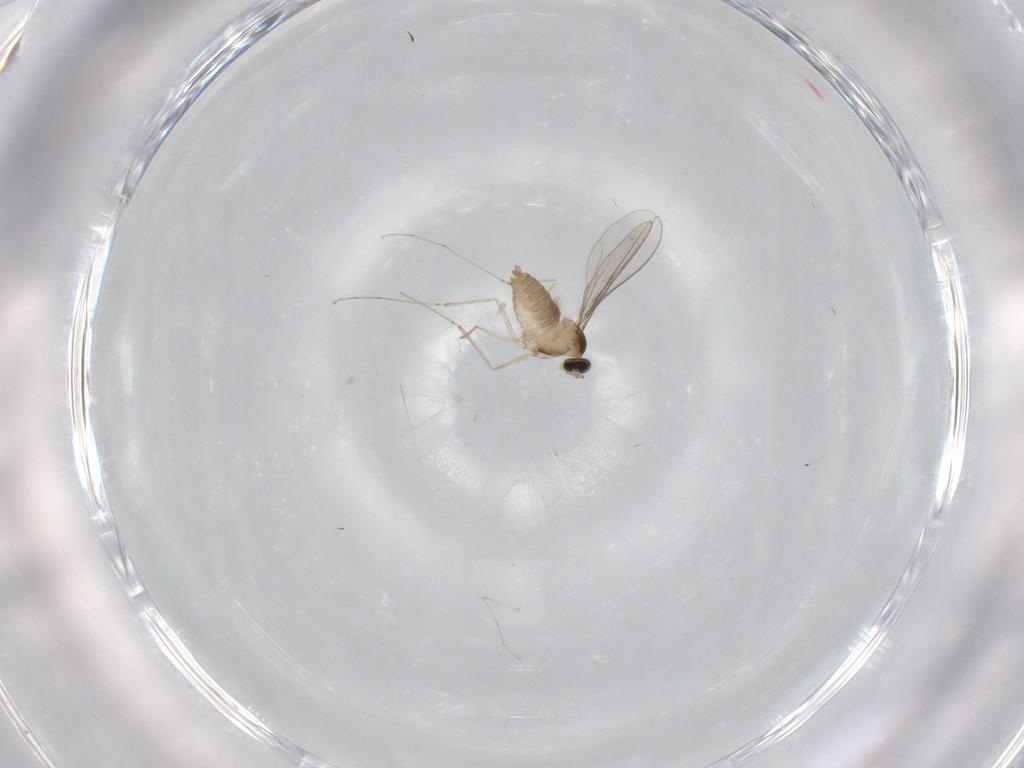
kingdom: Animalia
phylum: Arthropoda
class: Insecta
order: Diptera
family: Cecidomyiidae
